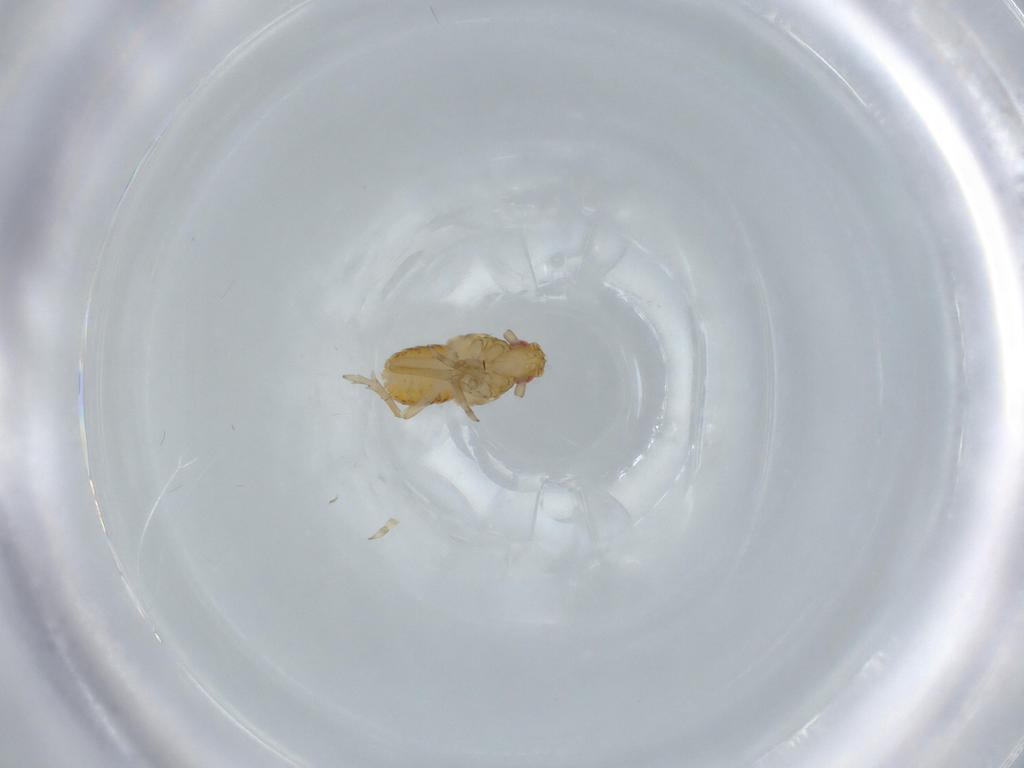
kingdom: Animalia
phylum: Arthropoda
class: Insecta
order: Hemiptera
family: Delphacidae
